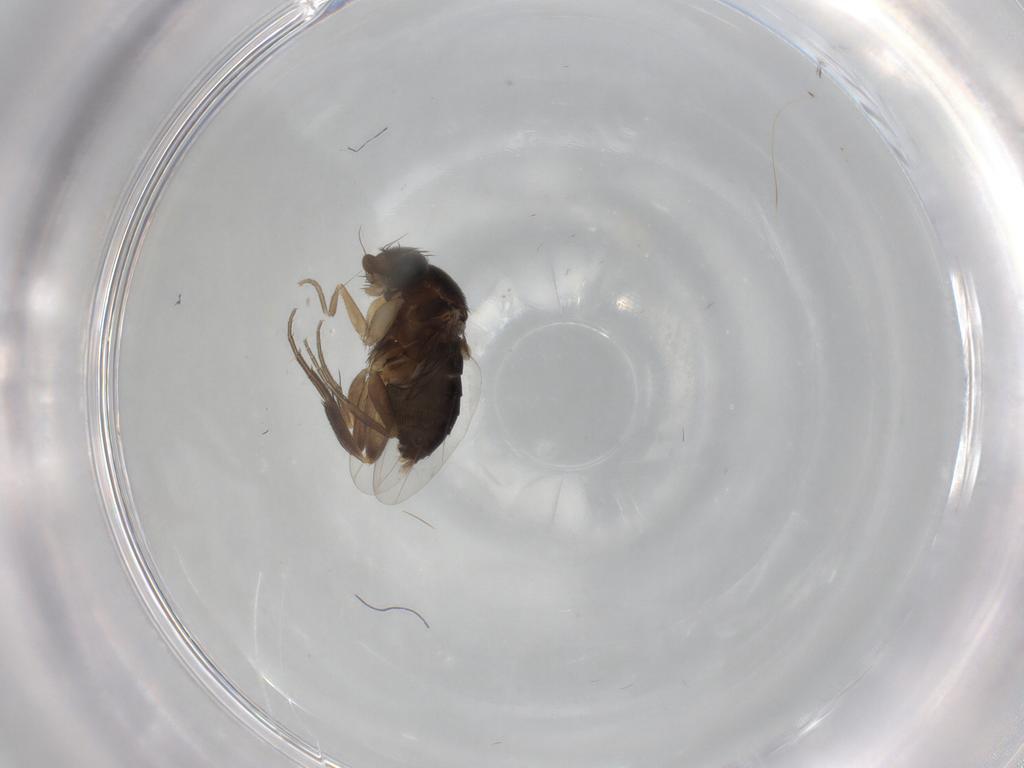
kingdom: Animalia
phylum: Arthropoda
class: Insecta
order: Diptera
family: Phoridae
